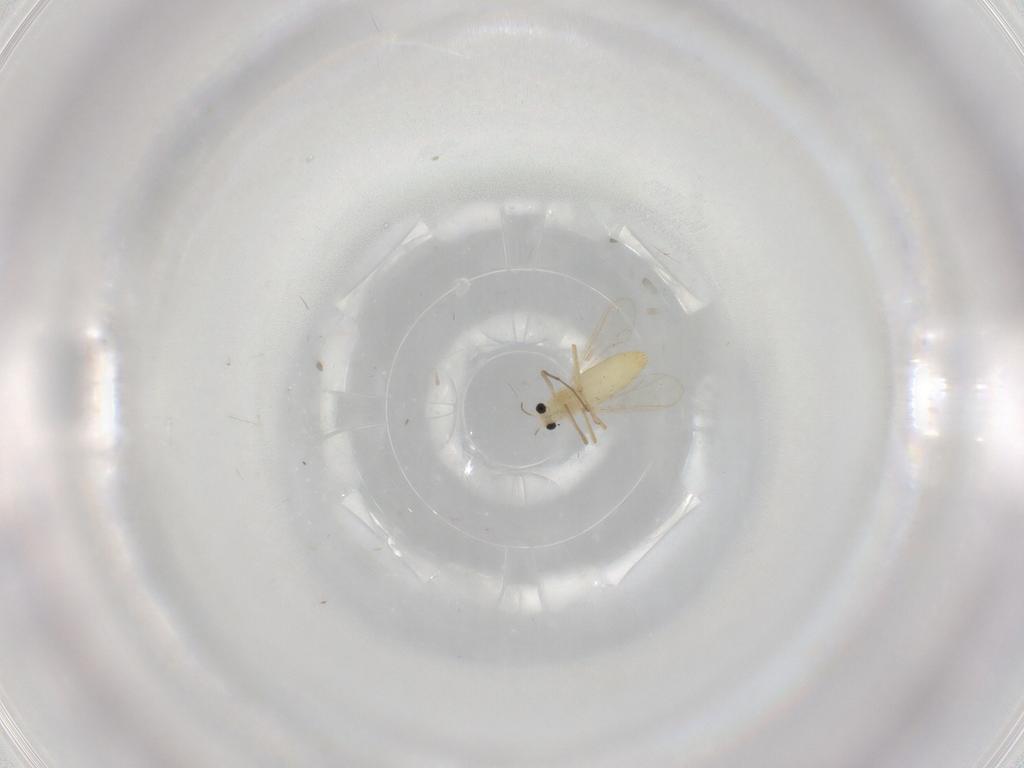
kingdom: Animalia
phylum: Arthropoda
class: Insecta
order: Diptera
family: Chironomidae
